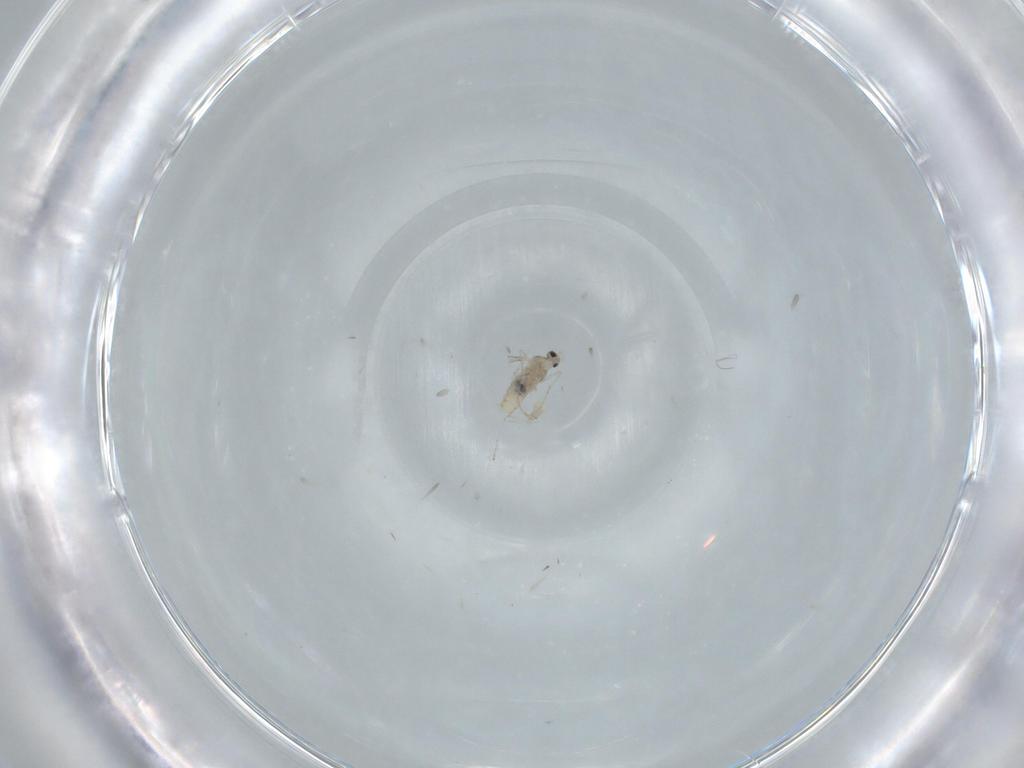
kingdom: Animalia
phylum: Arthropoda
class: Insecta
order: Diptera
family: Cecidomyiidae
